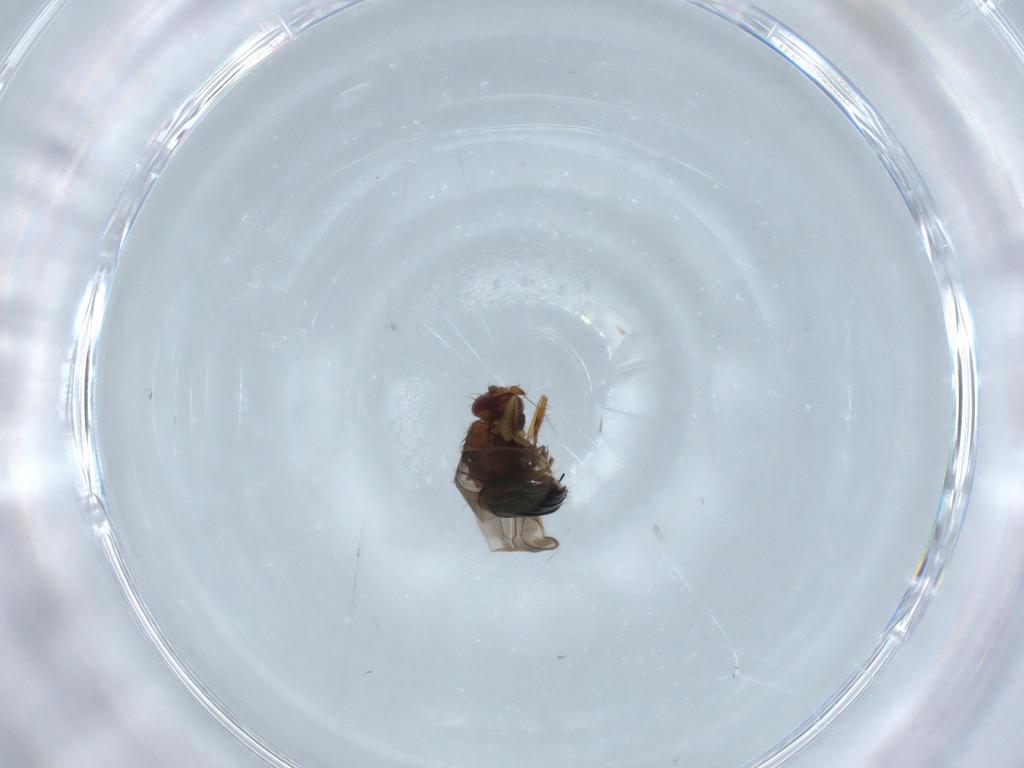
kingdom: Animalia
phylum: Arthropoda
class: Insecta
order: Diptera
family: Sphaeroceridae
